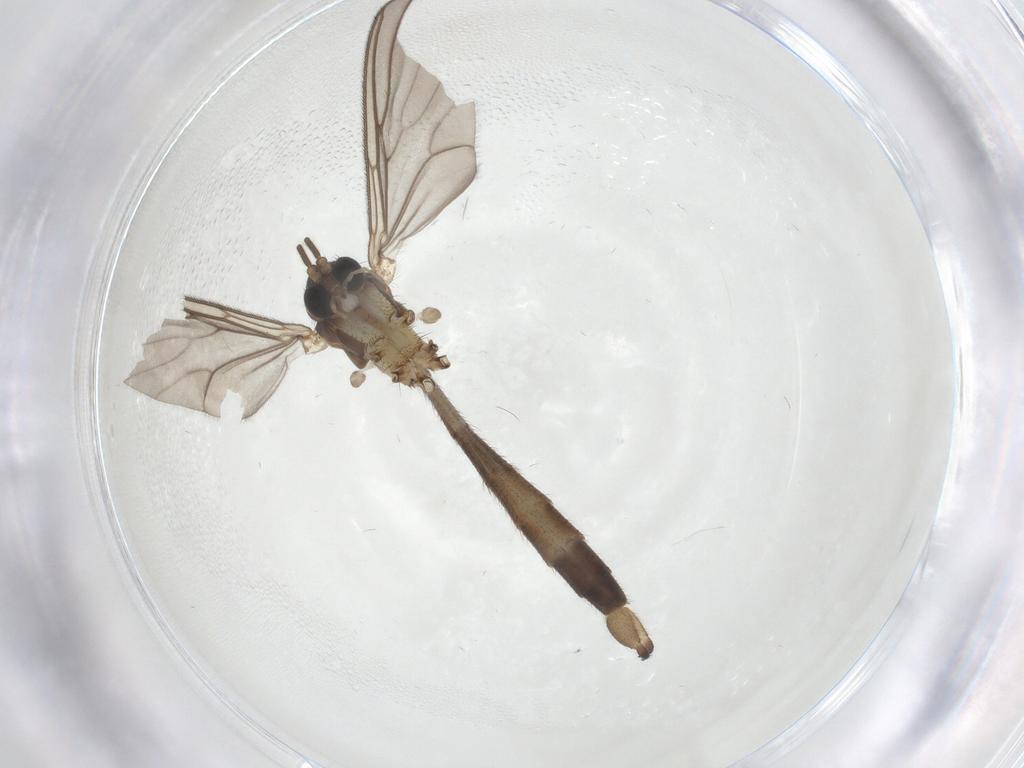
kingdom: Animalia
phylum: Arthropoda
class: Insecta
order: Diptera
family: Mycetophilidae
